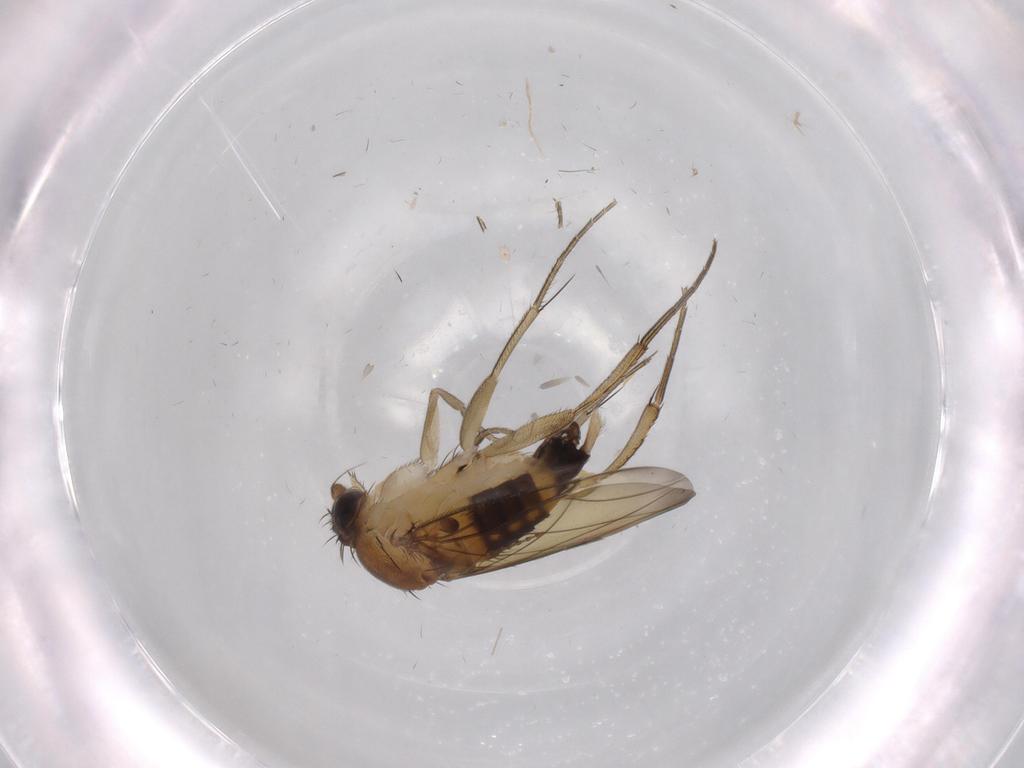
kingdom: Animalia
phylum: Arthropoda
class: Insecta
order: Diptera
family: Phoridae
